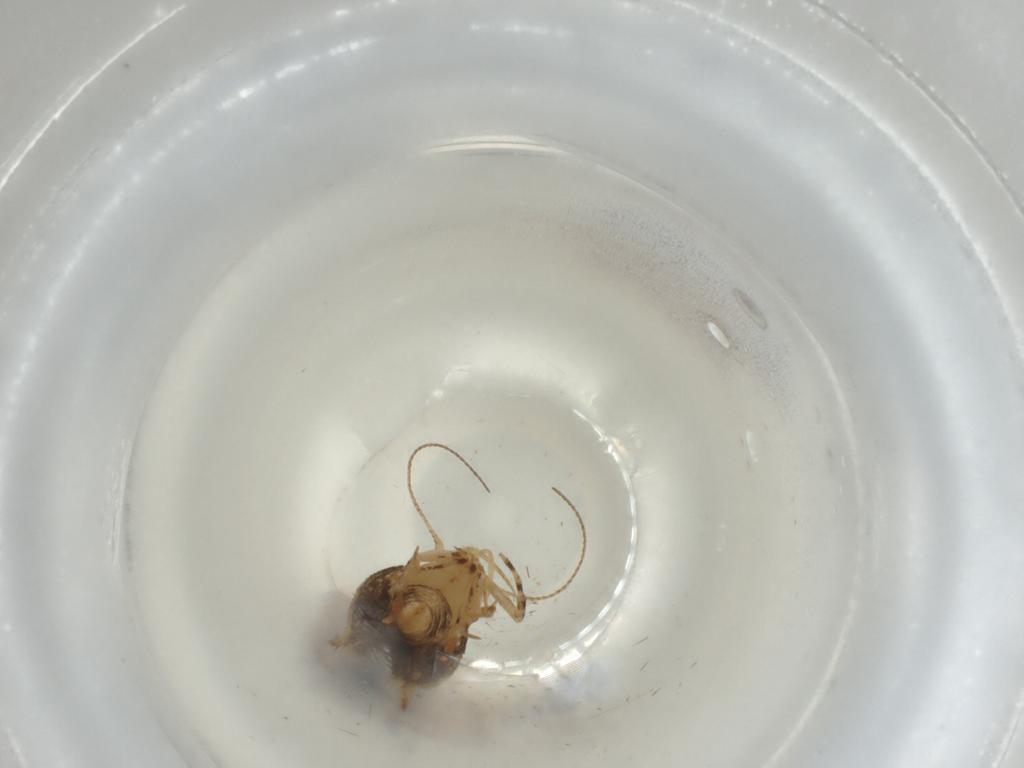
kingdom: Animalia
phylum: Arthropoda
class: Insecta
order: Lepidoptera
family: Cosmopterigidae
